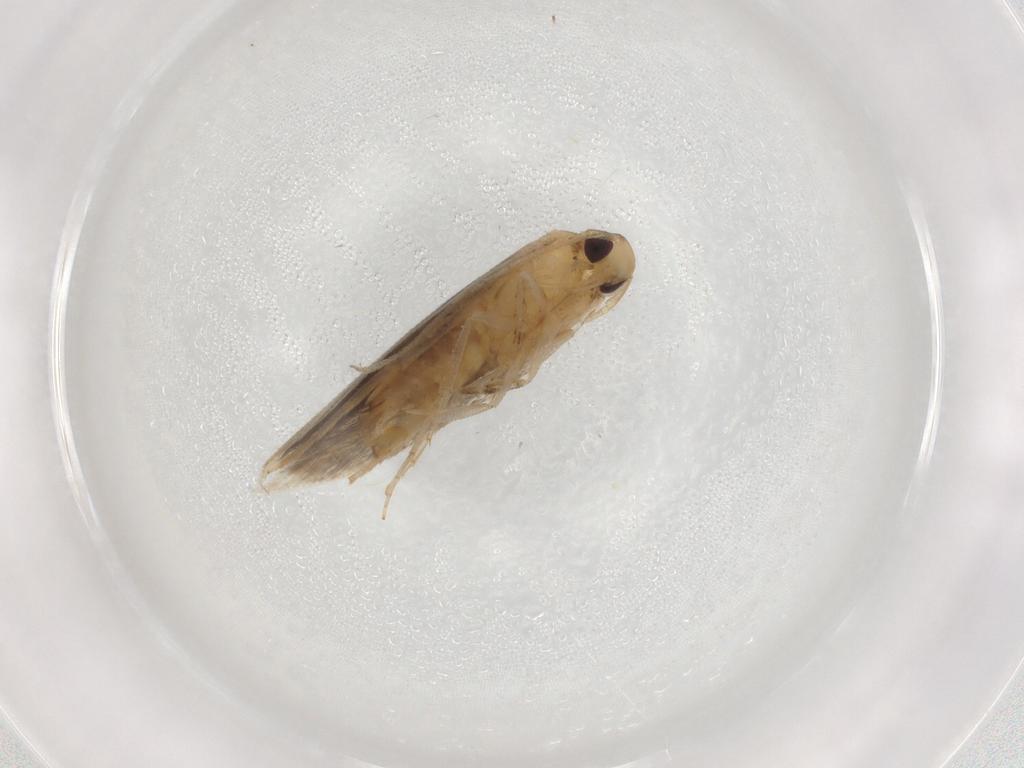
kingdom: Animalia
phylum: Arthropoda
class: Insecta
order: Lepidoptera
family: Cosmopterigidae
